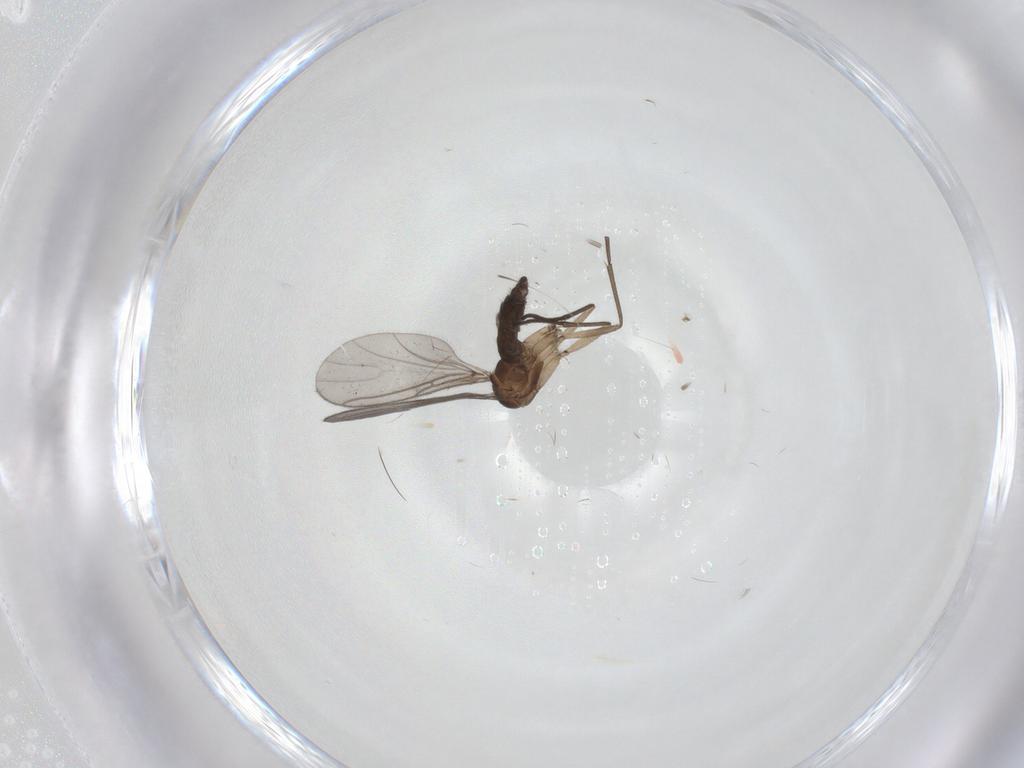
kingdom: Animalia
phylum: Arthropoda
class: Insecta
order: Diptera
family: Sciaridae
